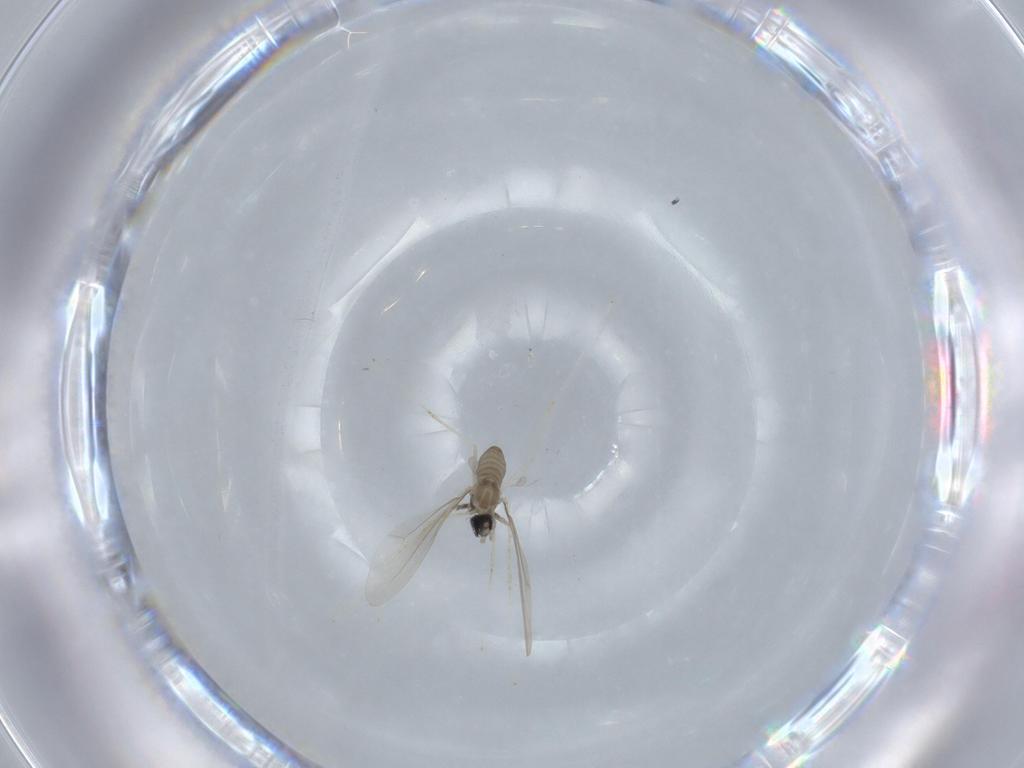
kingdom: Animalia
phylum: Arthropoda
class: Insecta
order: Diptera
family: Cecidomyiidae
